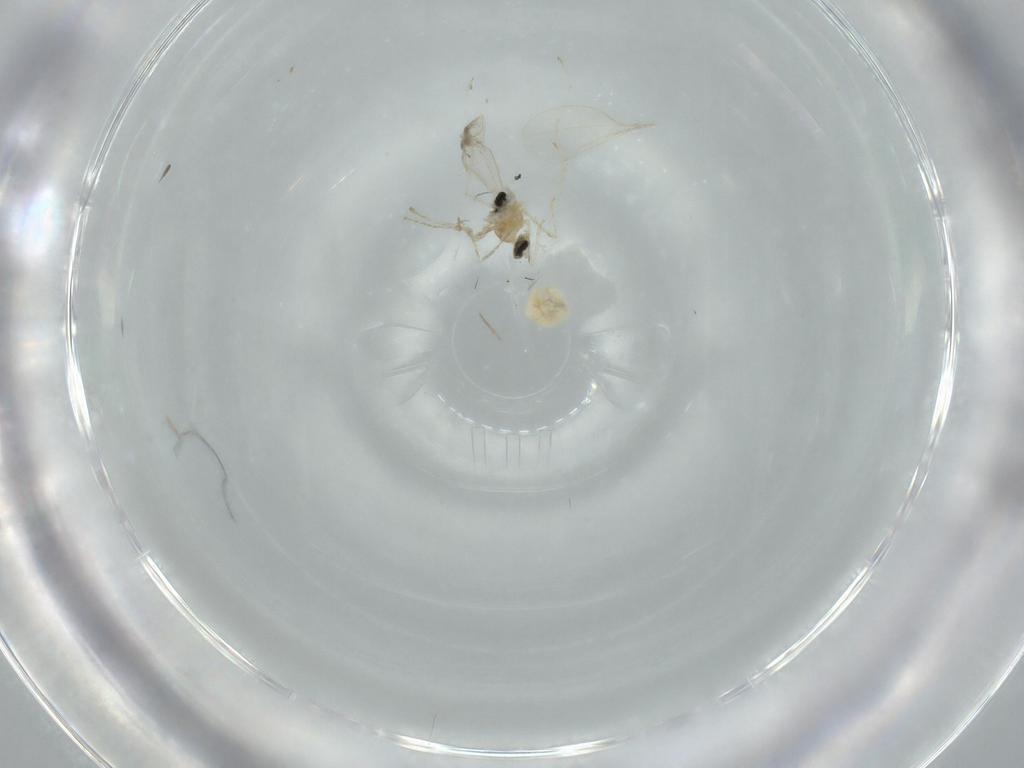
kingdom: Animalia
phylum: Arthropoda
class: Insecta
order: Diptera
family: Cecidomyiidae
